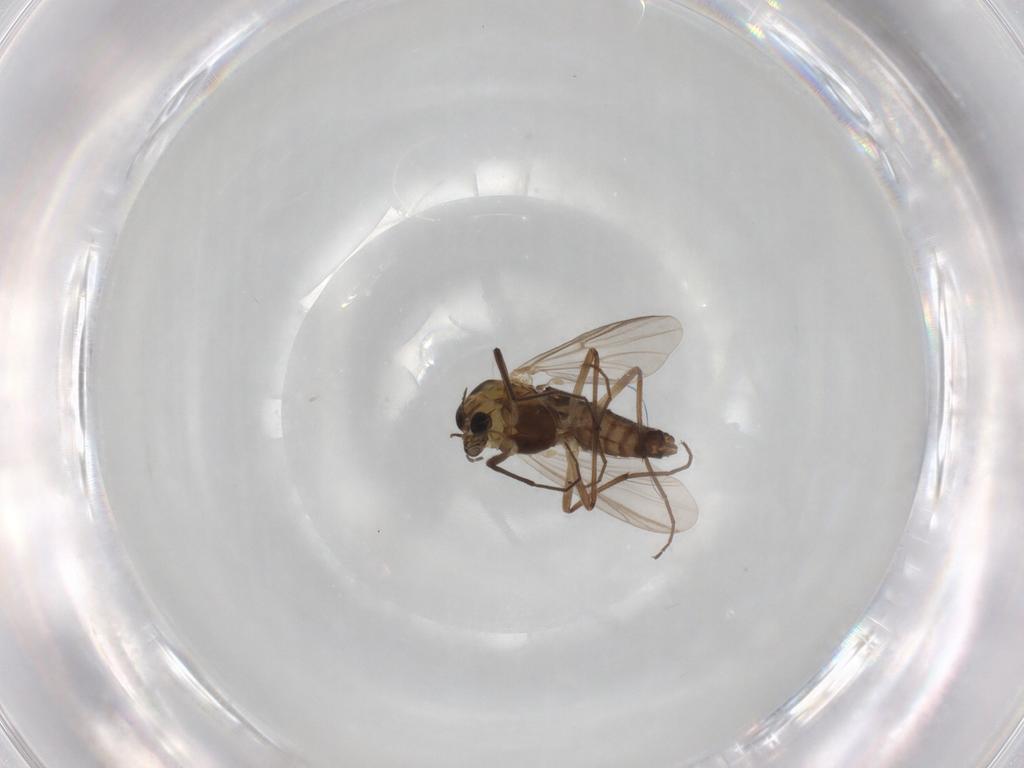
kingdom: Animalia
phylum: Arthropoda
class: Insecta
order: Diptera
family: Chironomidae
